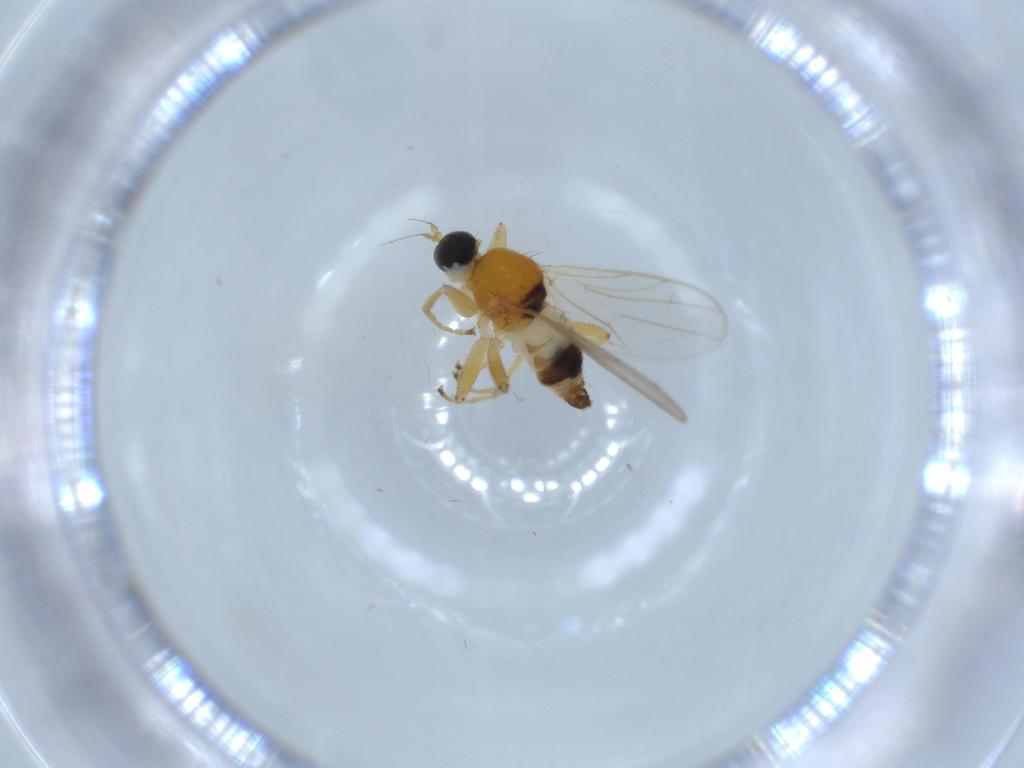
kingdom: Animalia
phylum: Arthropoda
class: Insecta
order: Diptera
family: Hybotidae
